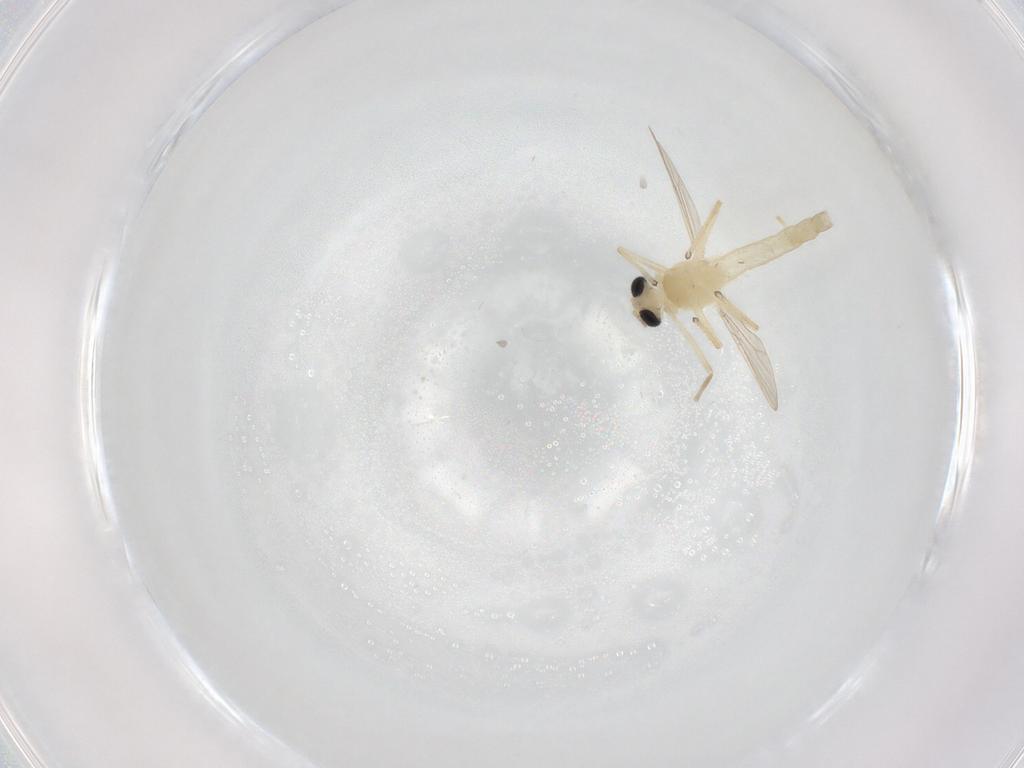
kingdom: Animalia
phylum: Arthropoda
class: Insecta
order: Diptera
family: Chironomidae
